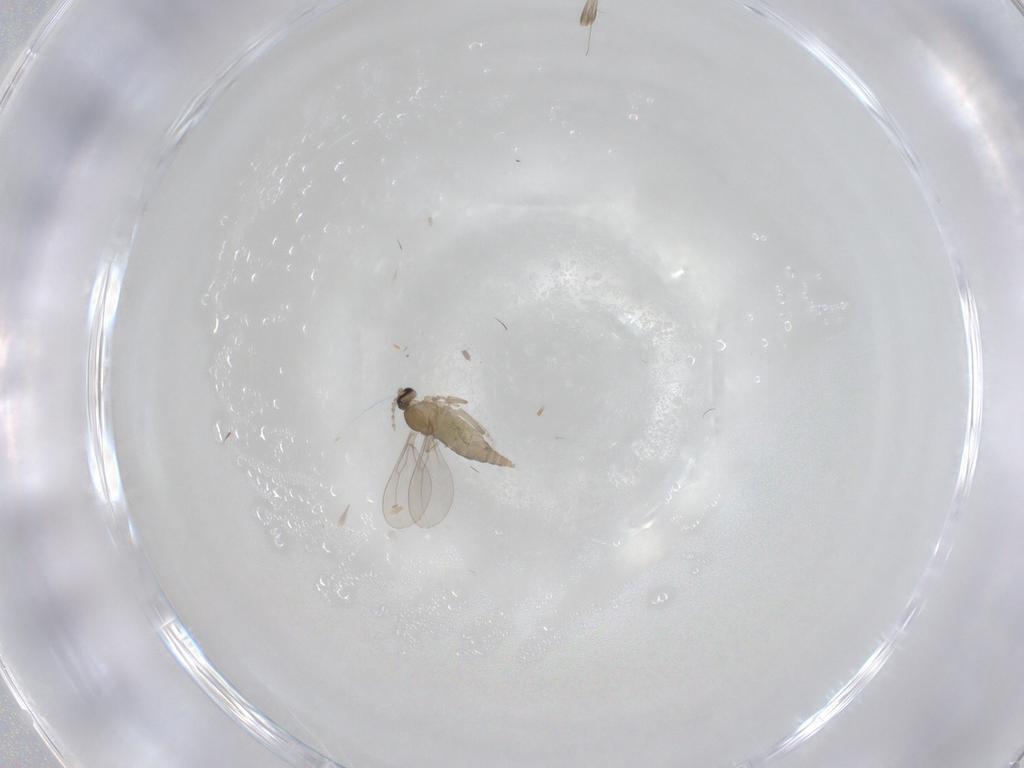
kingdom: Animalia
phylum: Arthropoda
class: Insecta
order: Diptera
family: Cecidomyiidae
